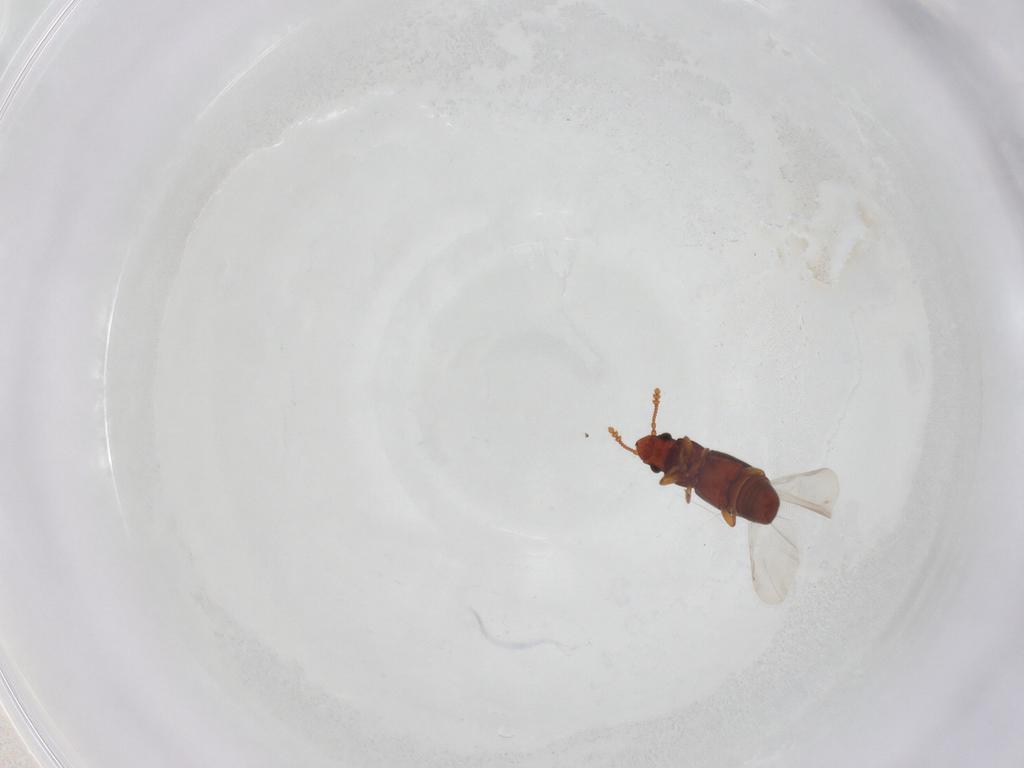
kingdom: Animalia
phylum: Arthropoda
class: Insecta
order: Coleoptera
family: Smicripidae
